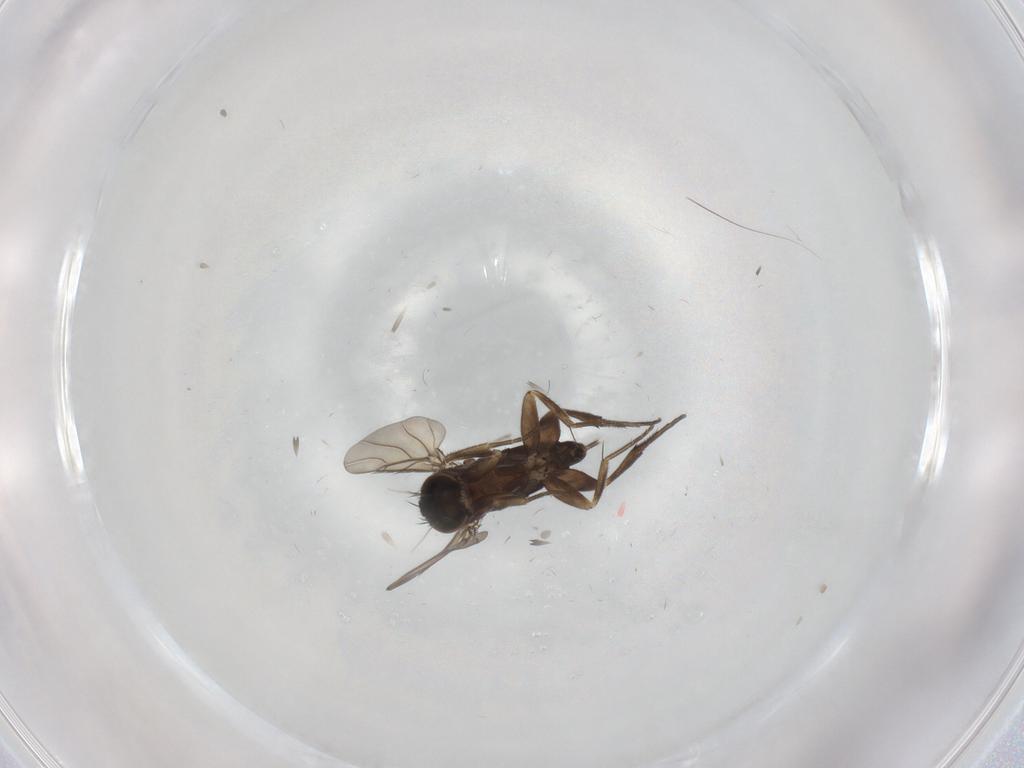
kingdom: Animalia
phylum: Arthropoda
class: Insecta
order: Diptera
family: Phoridae
